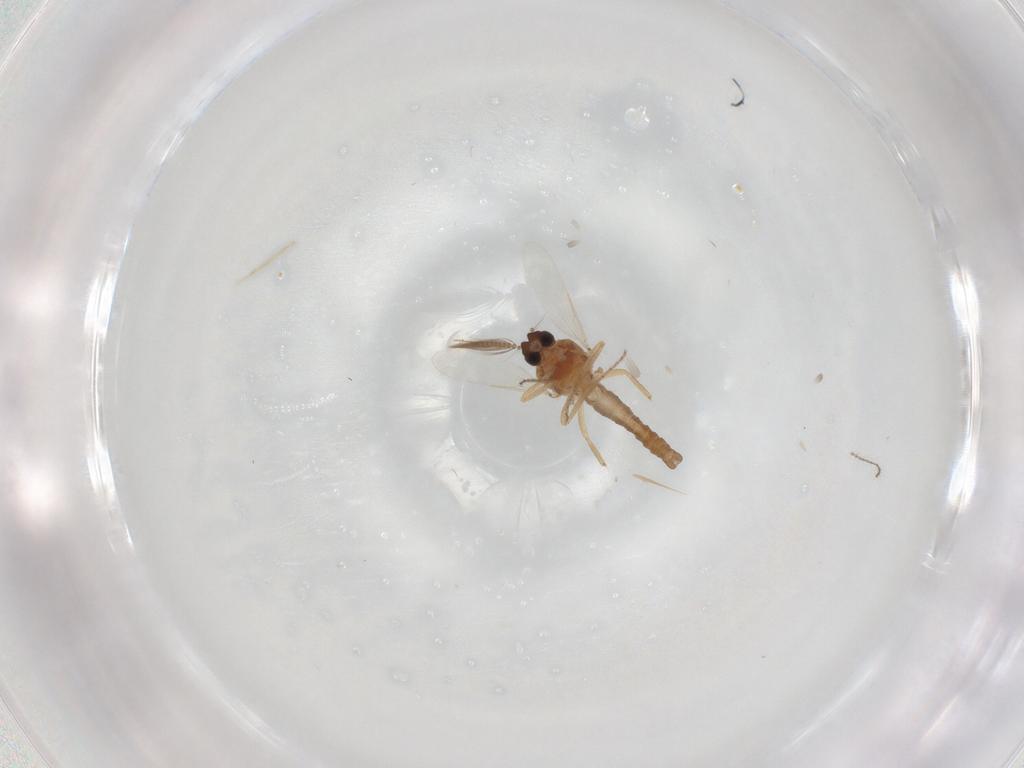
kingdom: Animalia
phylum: Arthropoda
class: Insecta
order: Diptera
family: Ceratopogonidae
